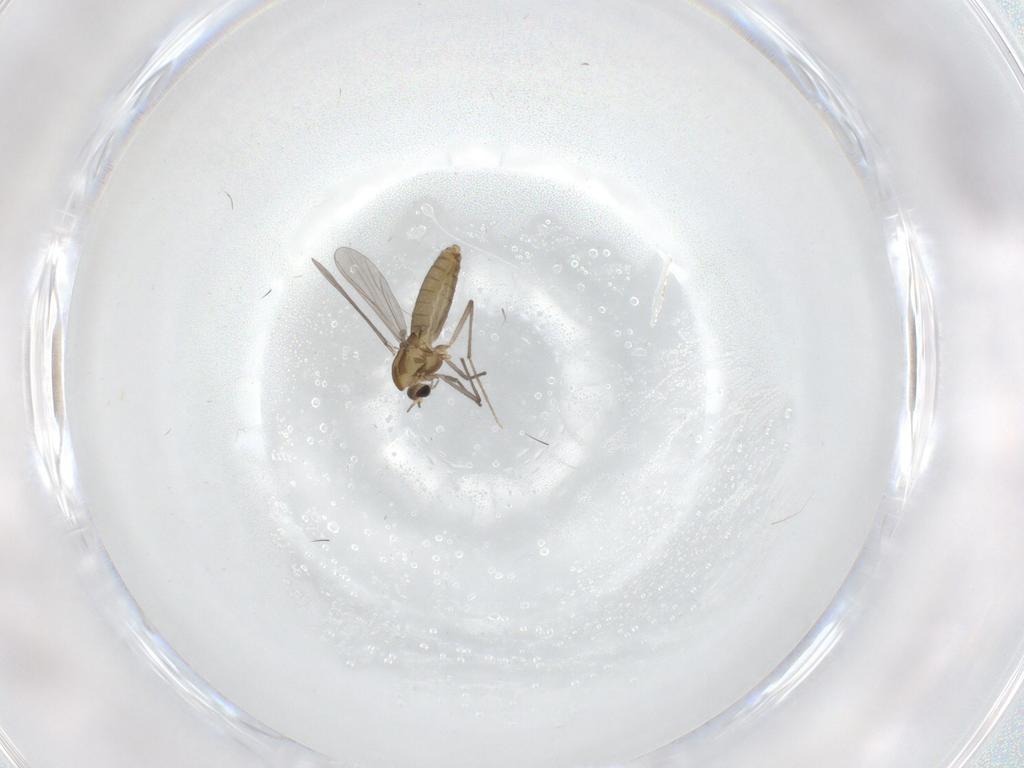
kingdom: Animalia
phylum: Arthropoda
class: Insecta
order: Diptera
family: Cecidomyiidae
